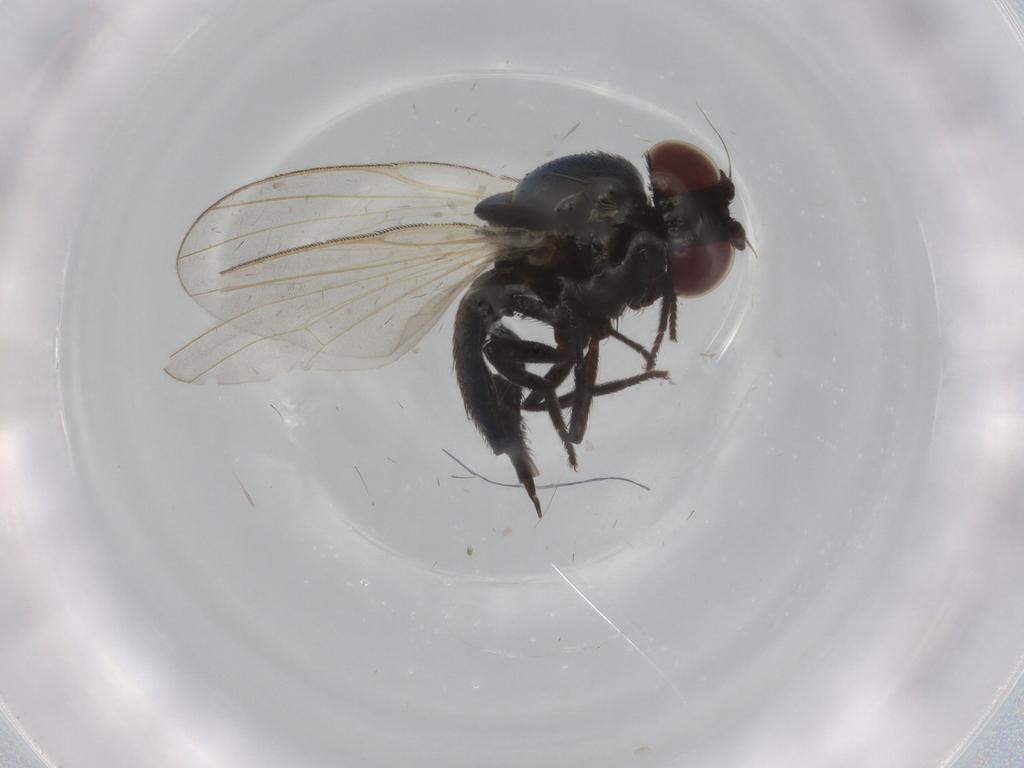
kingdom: Animalia
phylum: Arthropoda
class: Insecta
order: Diptera
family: Lonchaeidae
